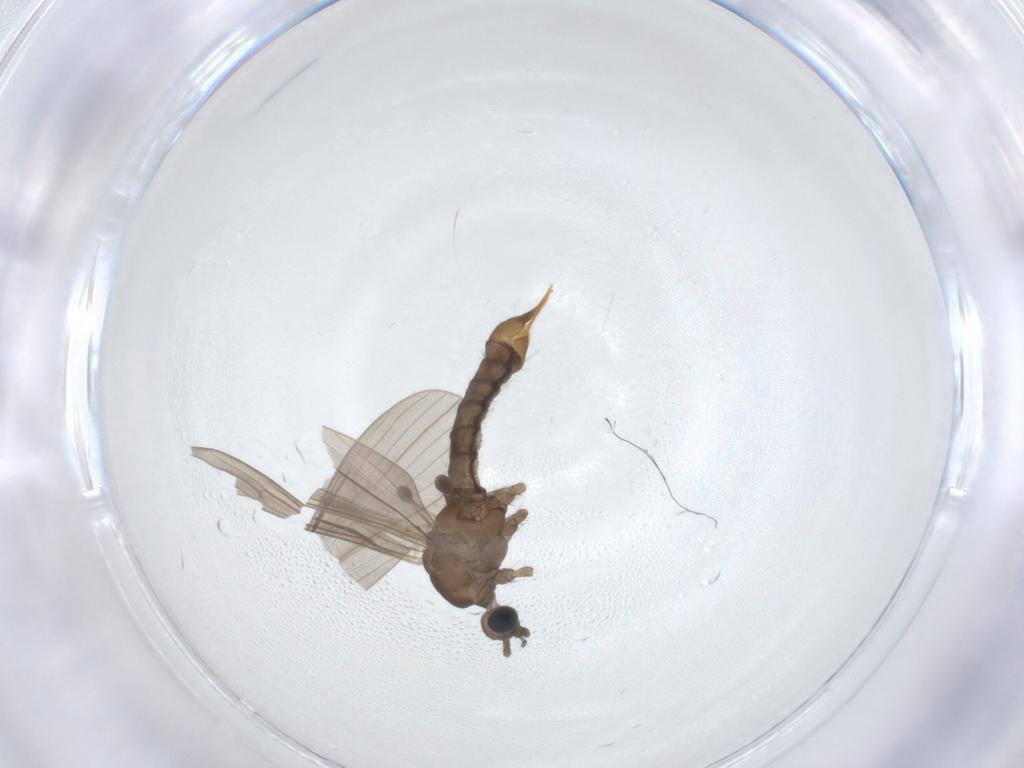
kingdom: Animalia
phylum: Arthropoda
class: Insecta
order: Diptera
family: Limoniidae
